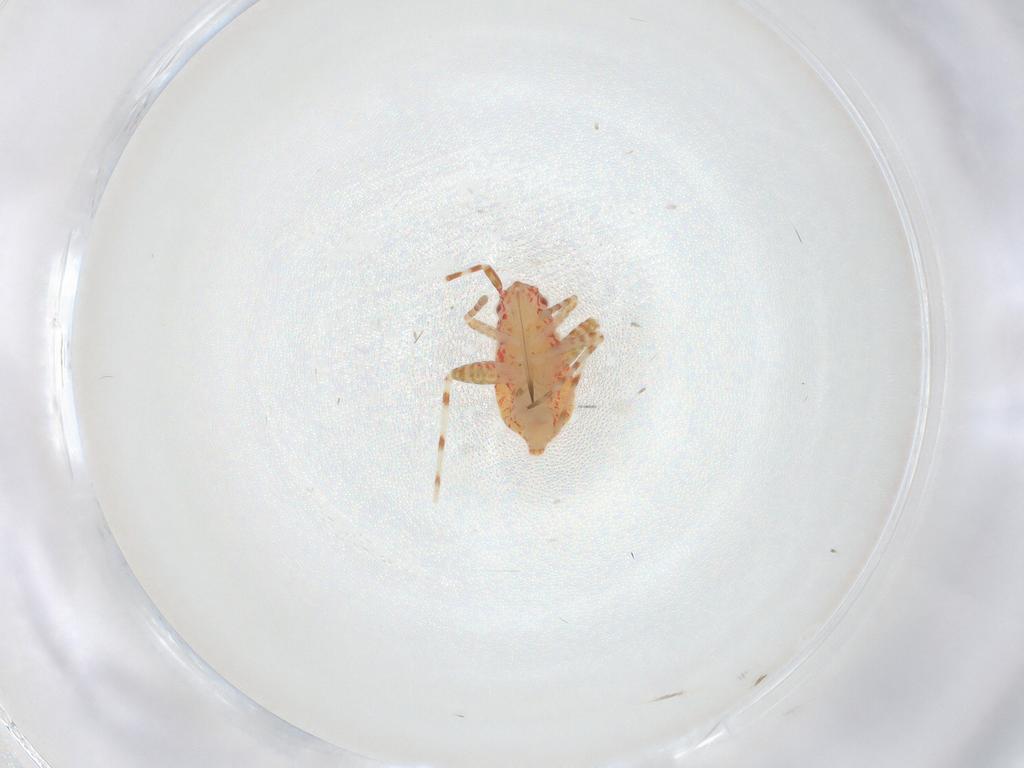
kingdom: Animalia
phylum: Arthropoda
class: Insecta
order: Hemiptera
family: Miridae
